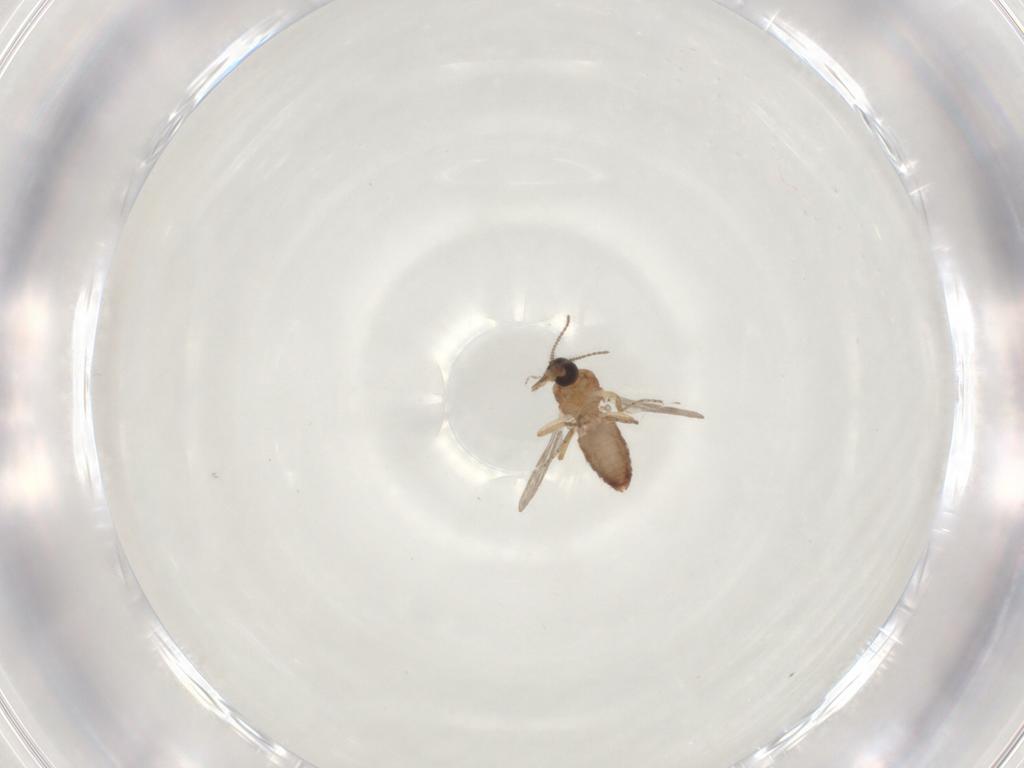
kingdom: Animalia
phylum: Arthropoda
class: Insecta
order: Diptera
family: Ceratopogonidae
